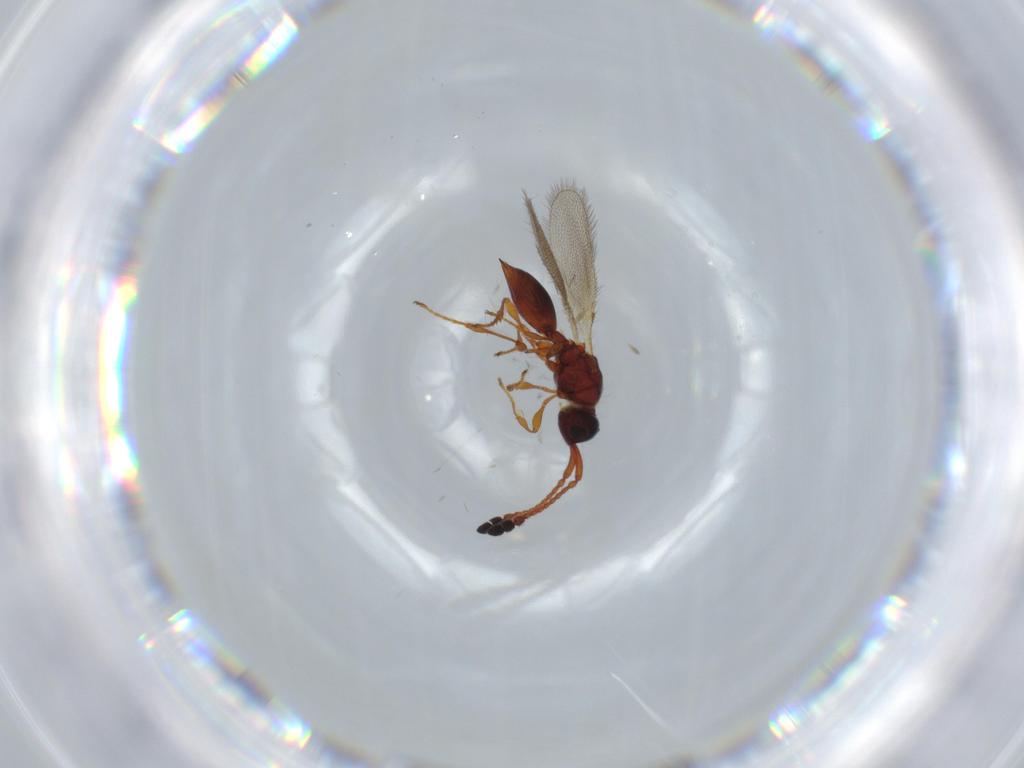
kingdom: Animalia
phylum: Arthropoda
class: Insecta
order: Hymenoptera
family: Diapriidae
